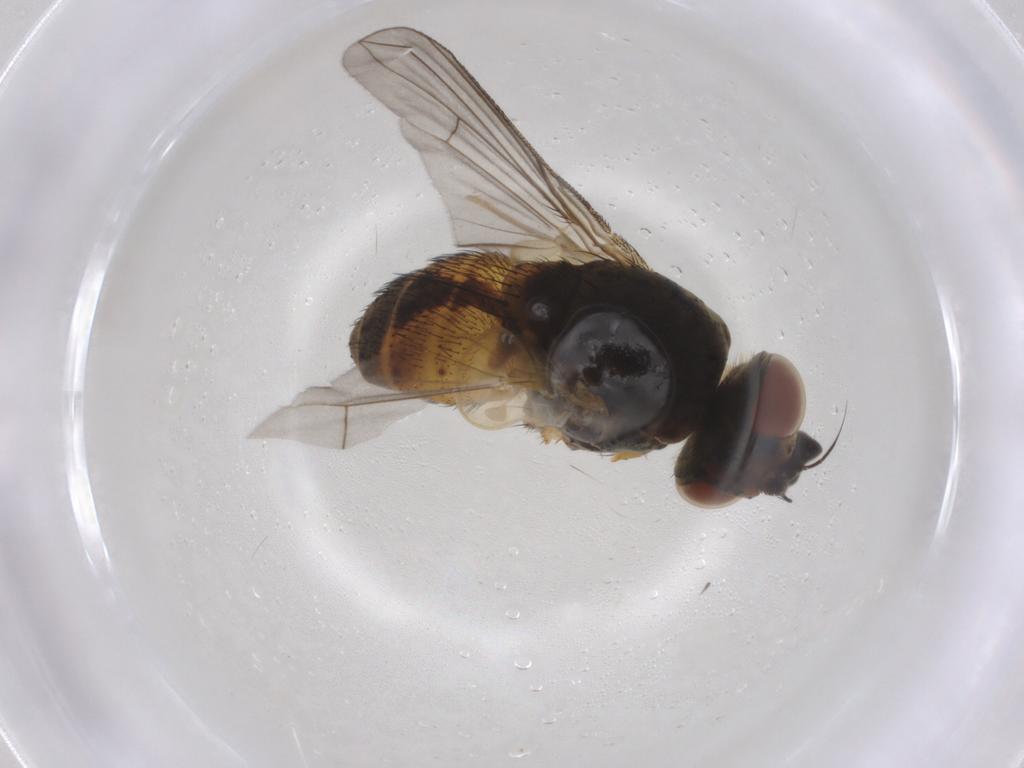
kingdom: Animalia
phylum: Arthropoda
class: Insecta
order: Diptera
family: Tachinidae
